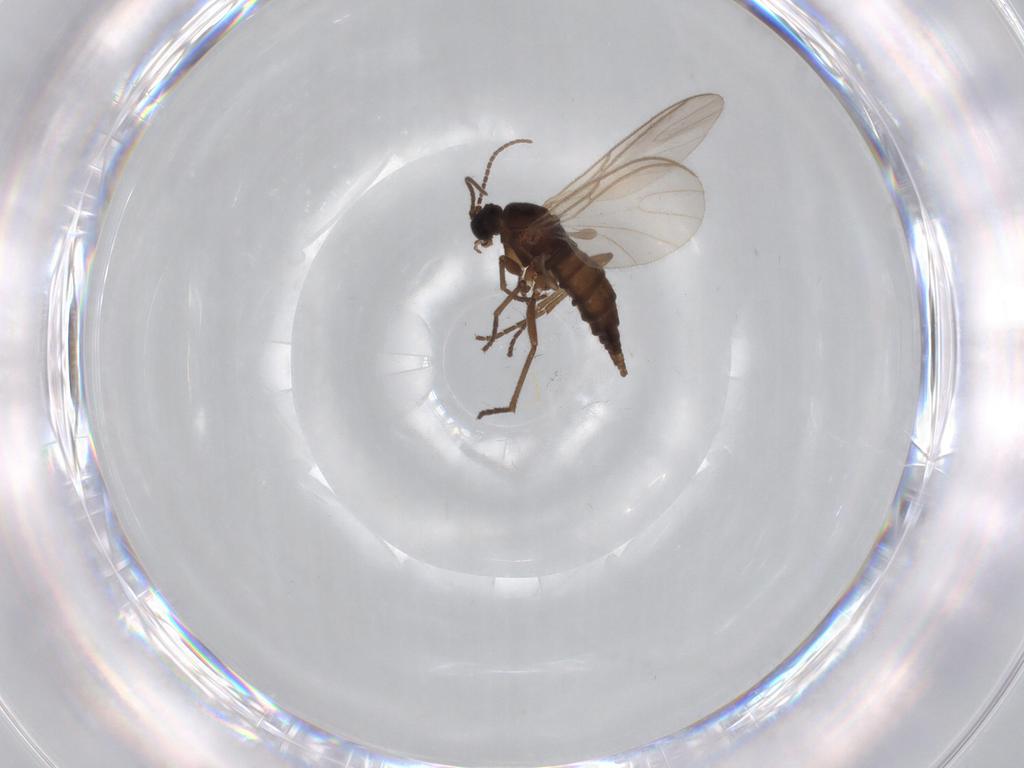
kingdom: Animalia
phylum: Arthropoda
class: Insecta
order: Diptera
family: Sciaridae
